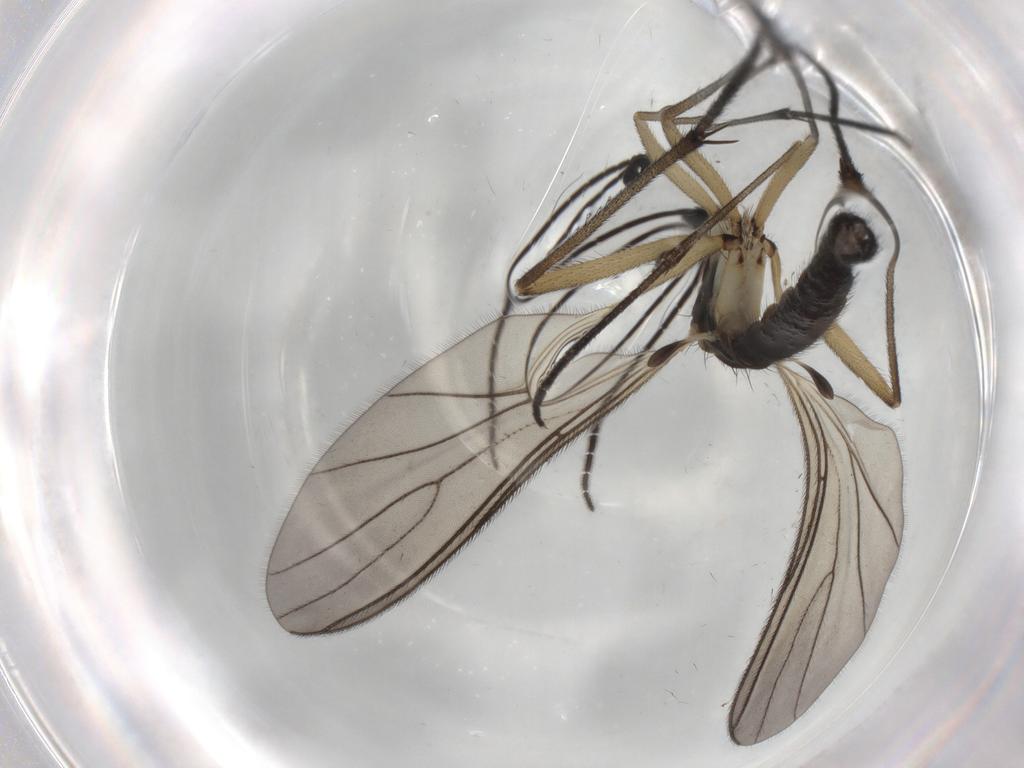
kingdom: Animalia
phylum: Arthropoda
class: Insecta
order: Diptera
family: Sciaridae
